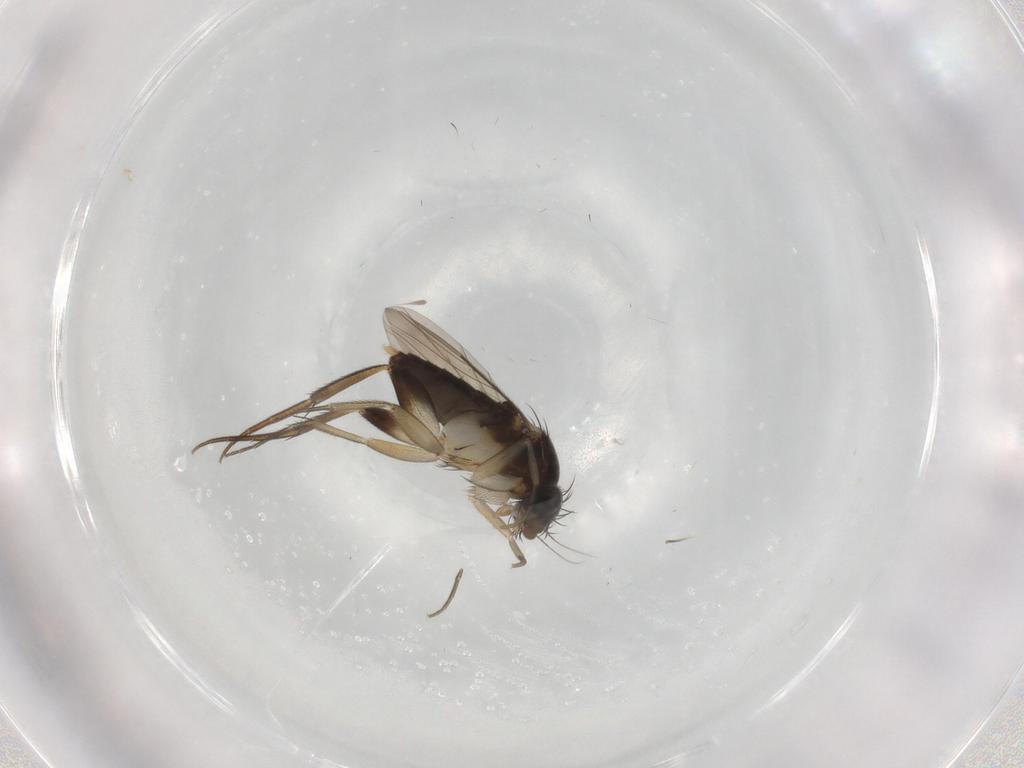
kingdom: Animalia
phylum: Arthropoda
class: Insecta
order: Diptera
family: Phoridae
